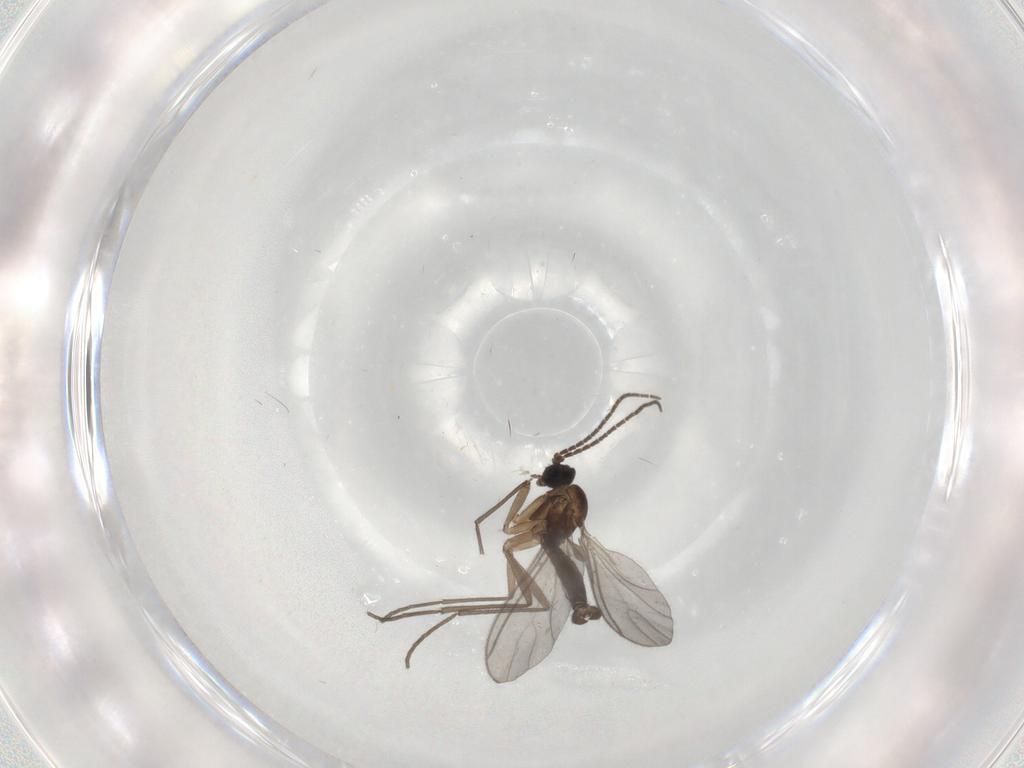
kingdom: Animalia
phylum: Arthropoda
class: Insecta
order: Diptera
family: Sciaridae
